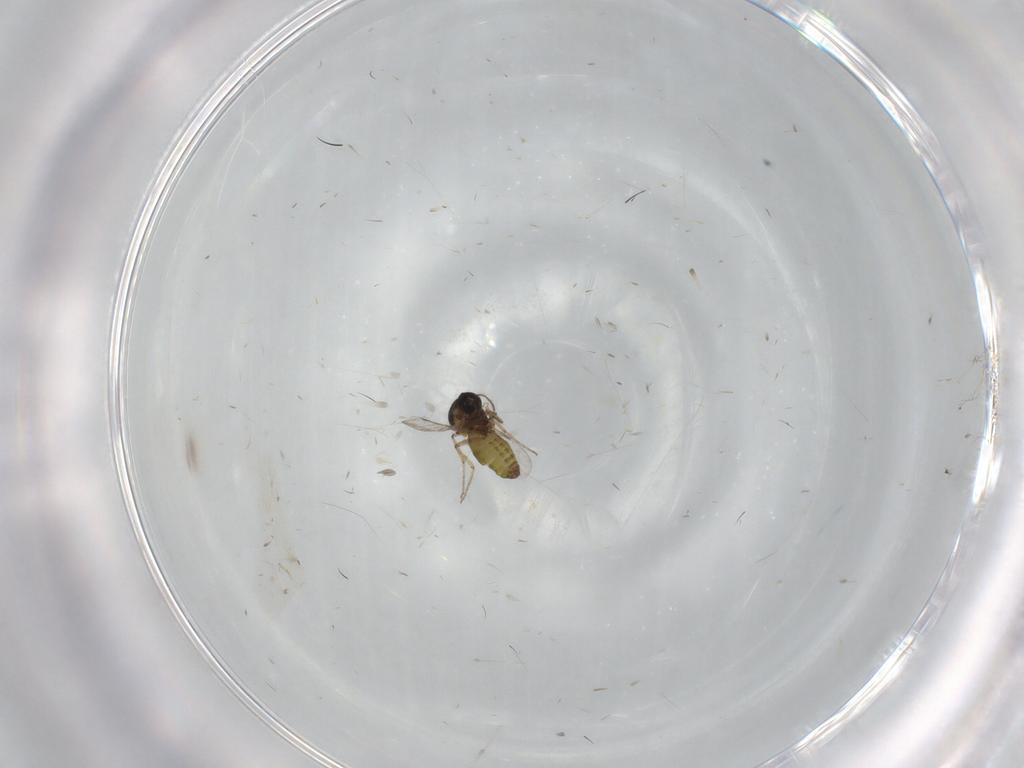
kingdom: Animalia
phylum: Arthropoda
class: Insecta
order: Diptera
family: Ceratopogonidae
